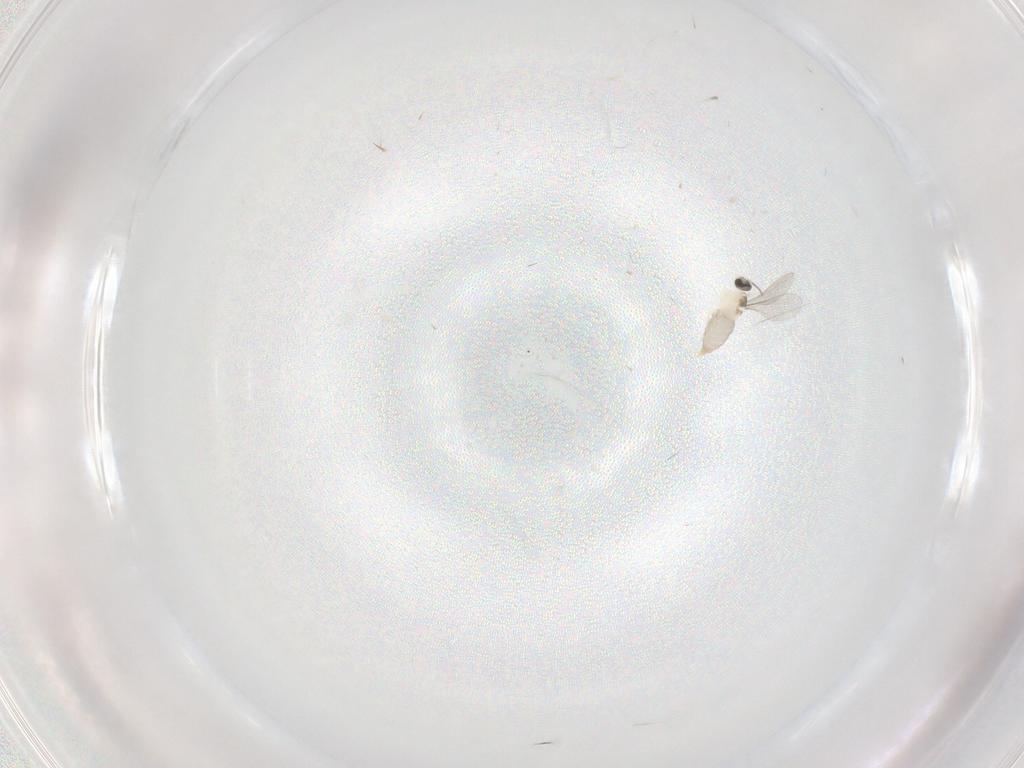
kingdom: Animalia
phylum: Arthropoda
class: Insecta
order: Diptera
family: Cecidomyiidae
